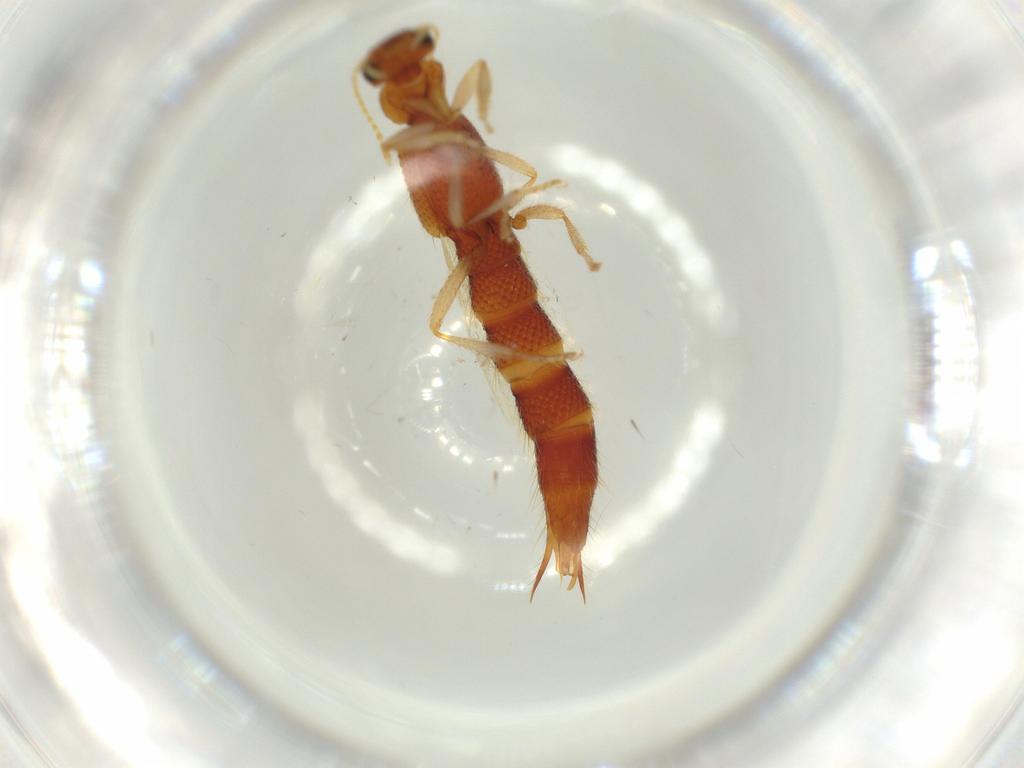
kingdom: Animalia
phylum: Arthropoda
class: Insecta
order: Coleoptera
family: Staphylinidae
